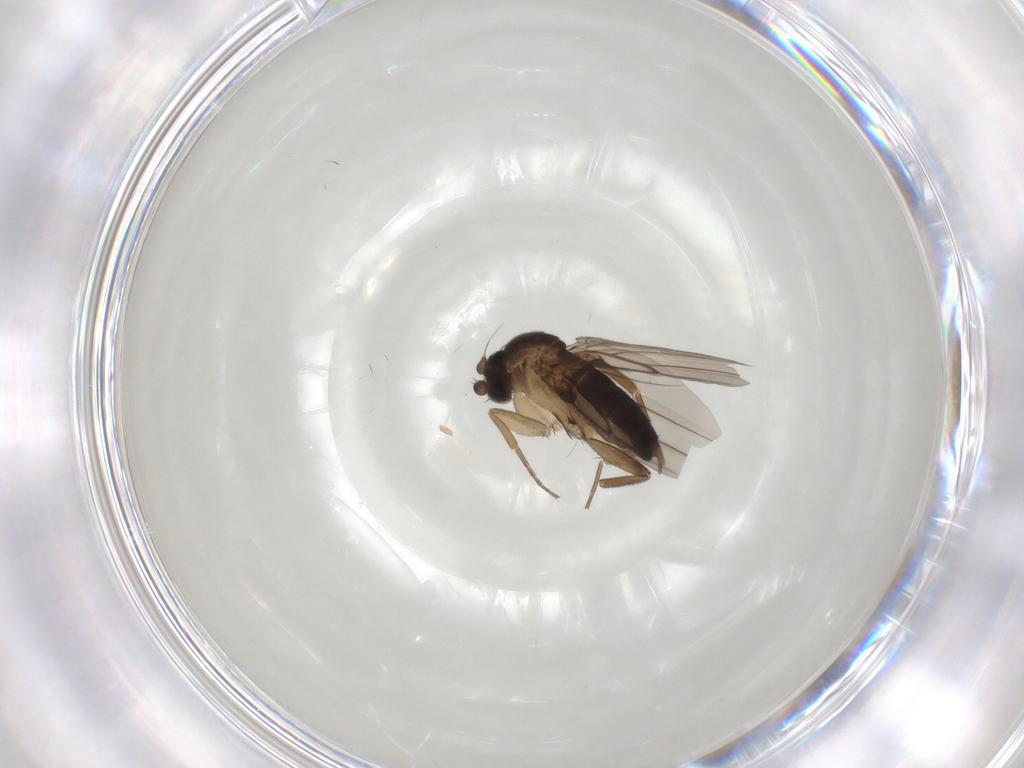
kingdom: Animalia
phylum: Arthropoda
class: Insecta
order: Diptera
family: Phoridae
